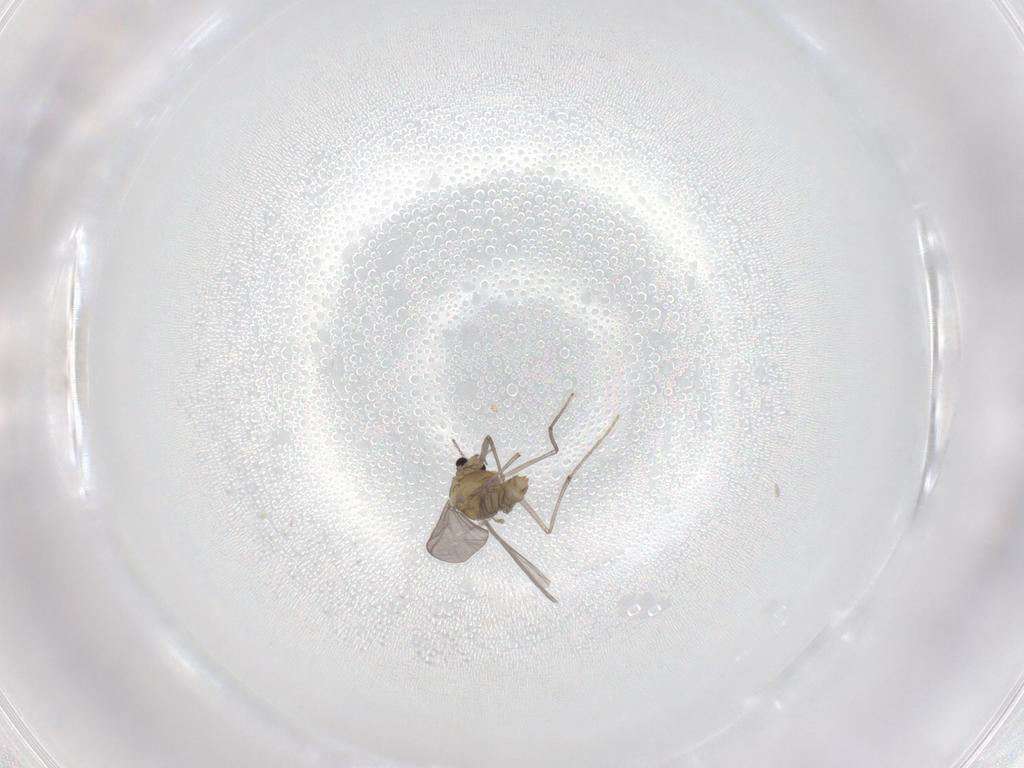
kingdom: Animalia
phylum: Arthropoda
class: Insecta
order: Diptera
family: Chironomidae
